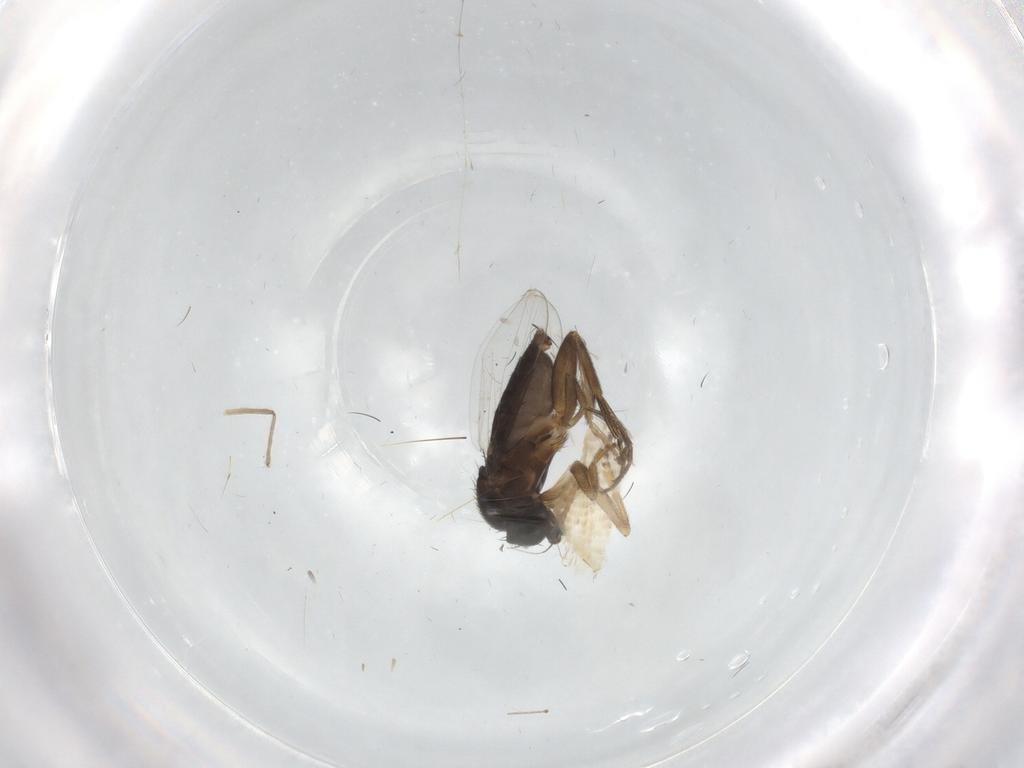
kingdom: Animalia
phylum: Arthropoda
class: Insecta
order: Diptera
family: Phoridae
